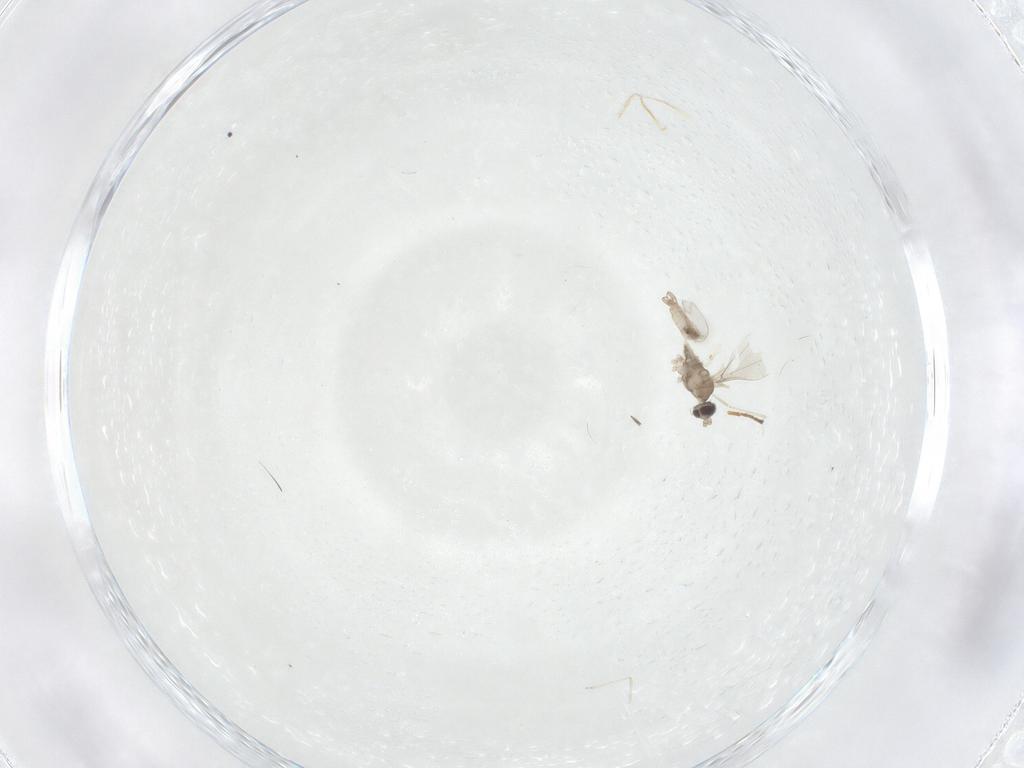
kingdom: Animalia
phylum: Arthropoda
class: Insecta
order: Diptera
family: Cecidomyiidae
